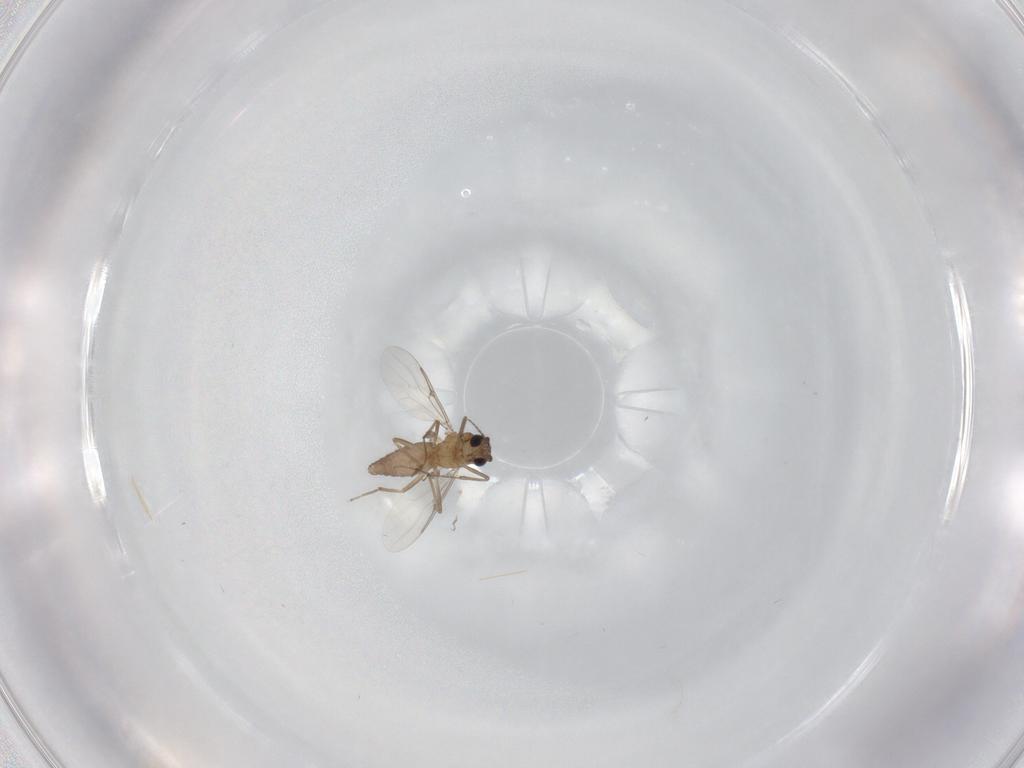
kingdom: Animalia
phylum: Arthropoda
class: Insecta
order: Diptera
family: Ceratopogonidae
